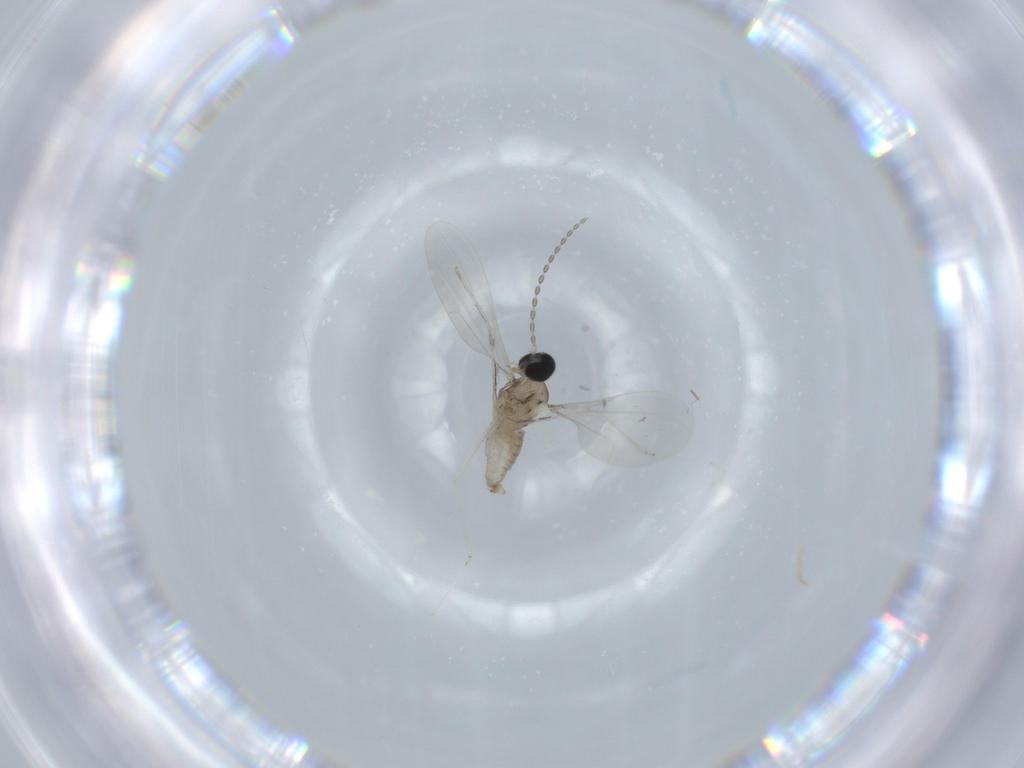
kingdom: Animalia
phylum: Arthropoda
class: Insecta
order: Diptera
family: Cecidomyiidae
